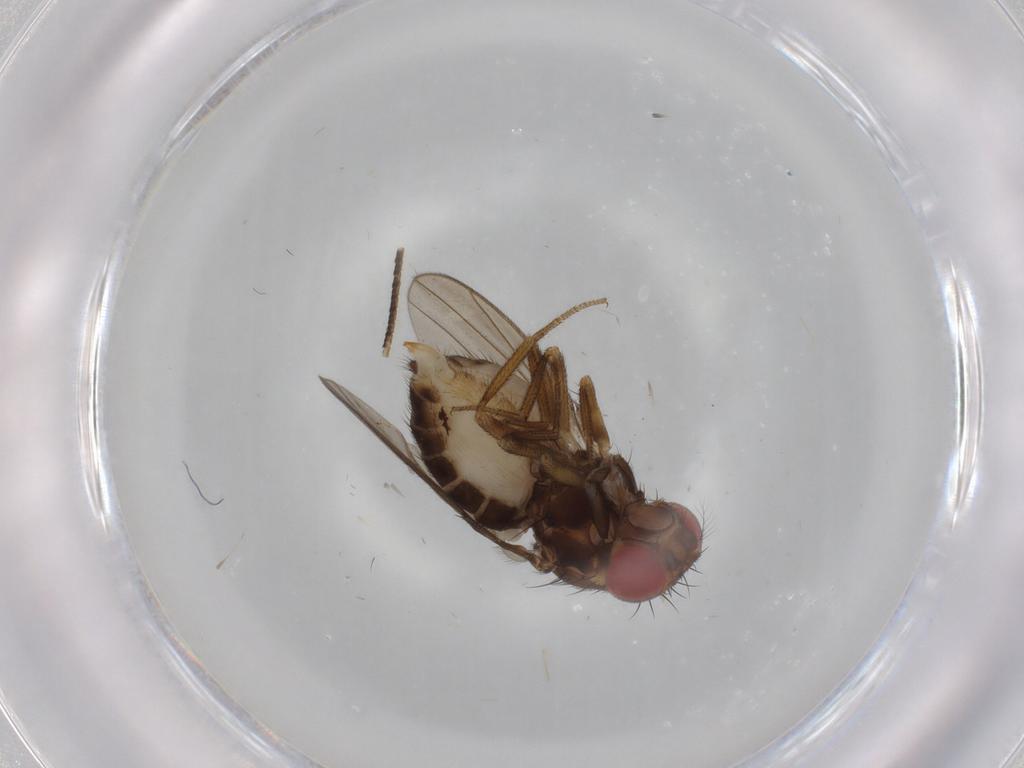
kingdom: Animalia
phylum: Arthropoda
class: Insecta
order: Diptera
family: Drosophilidae
